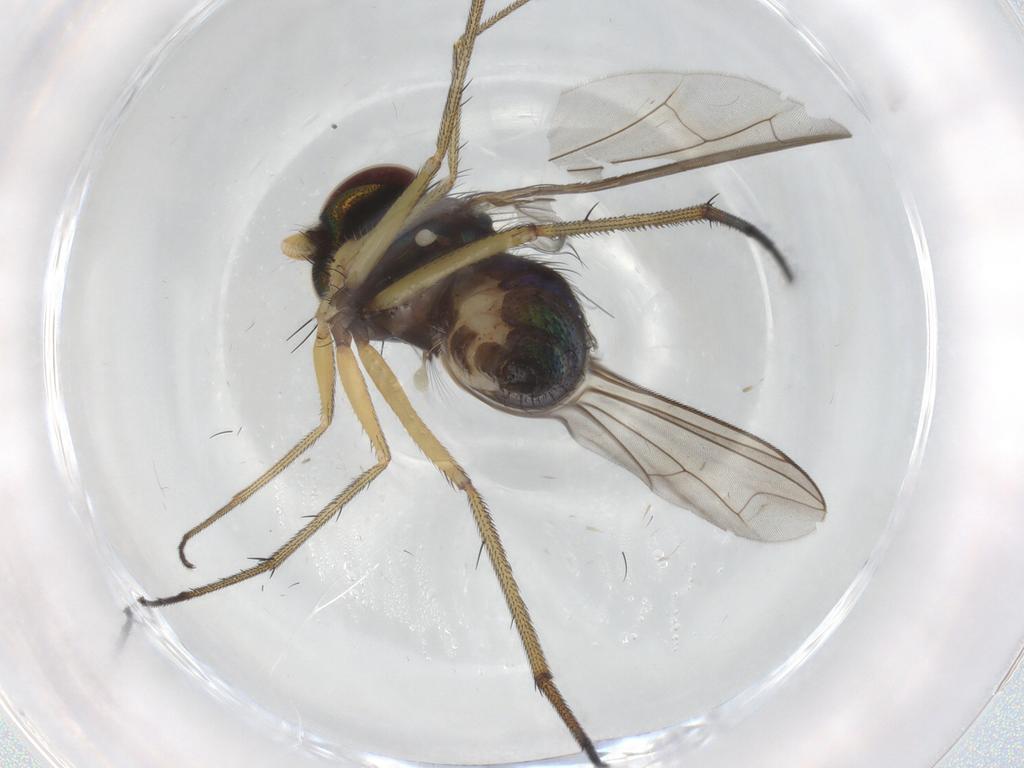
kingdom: Animalia
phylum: Arthropoda
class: Insecta
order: Diptera
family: Dolichopodidae
